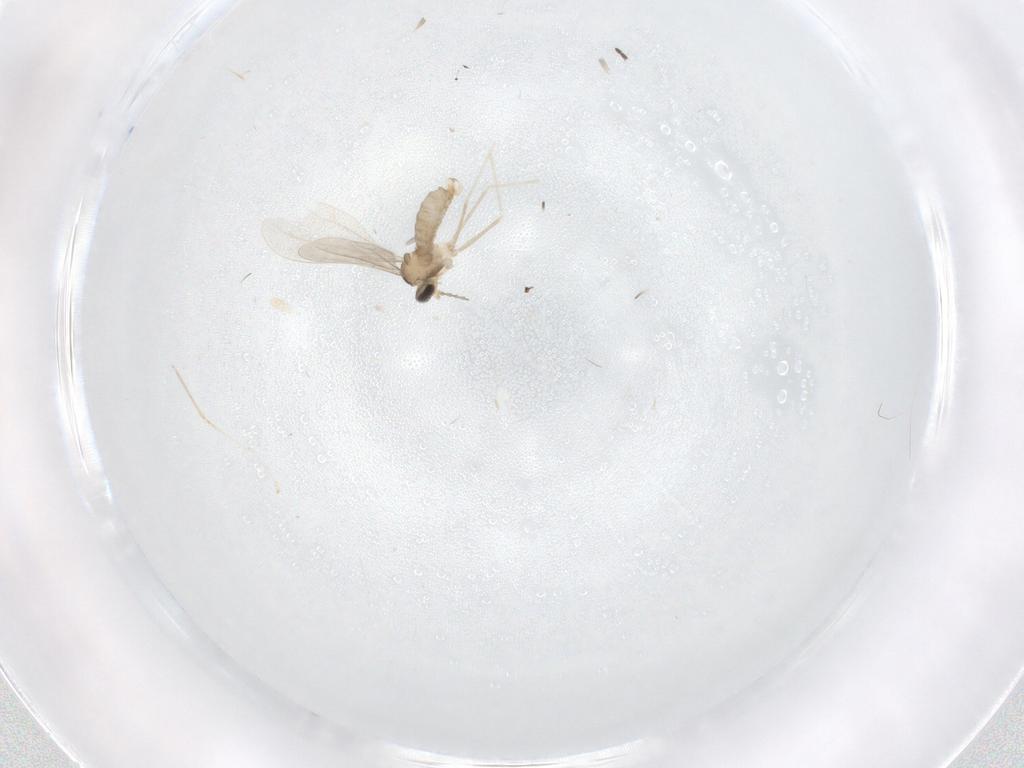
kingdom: Animalia
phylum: Arthropoda
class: Insecta
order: Diptera
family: Cecidomyiidae
